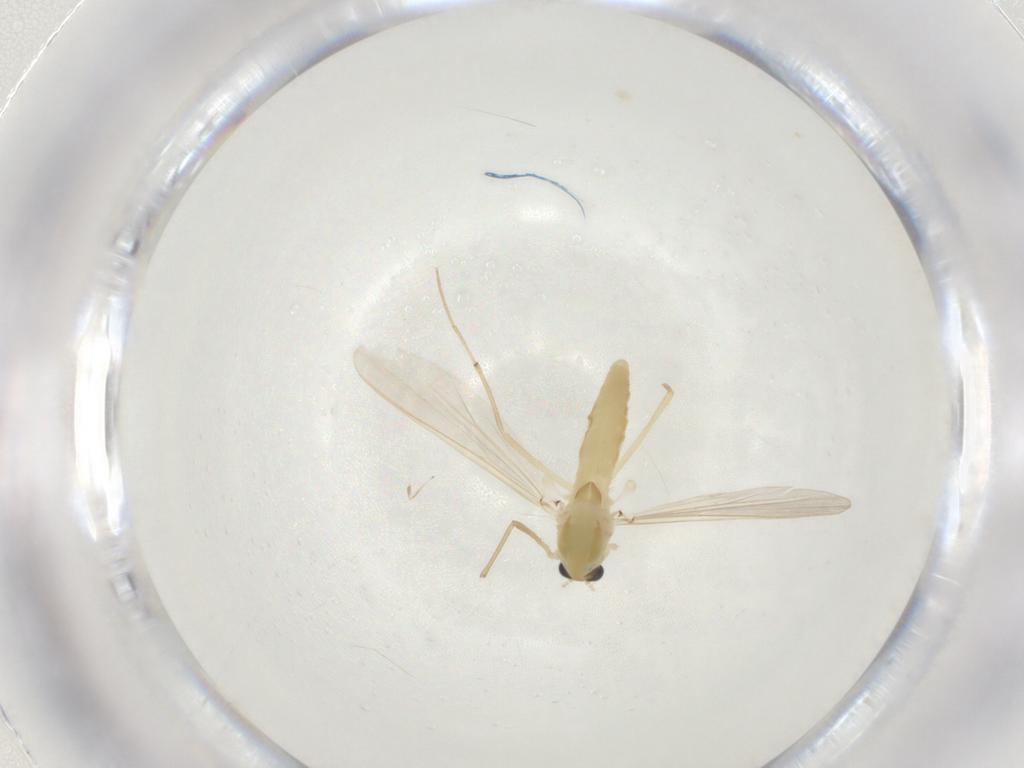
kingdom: Animalia
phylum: Arthropoda
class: Insecta
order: Diptera
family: Chironomidae
